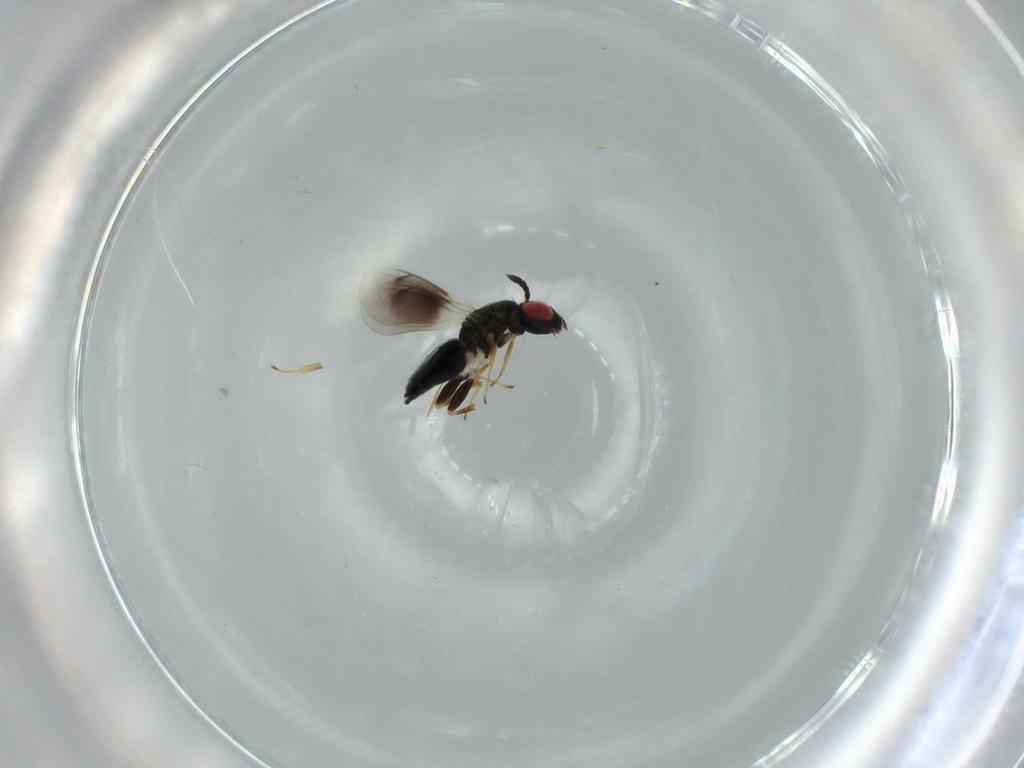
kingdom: Animalia
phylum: Arthropoda
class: Insecta
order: Diptera
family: Chironomidae
